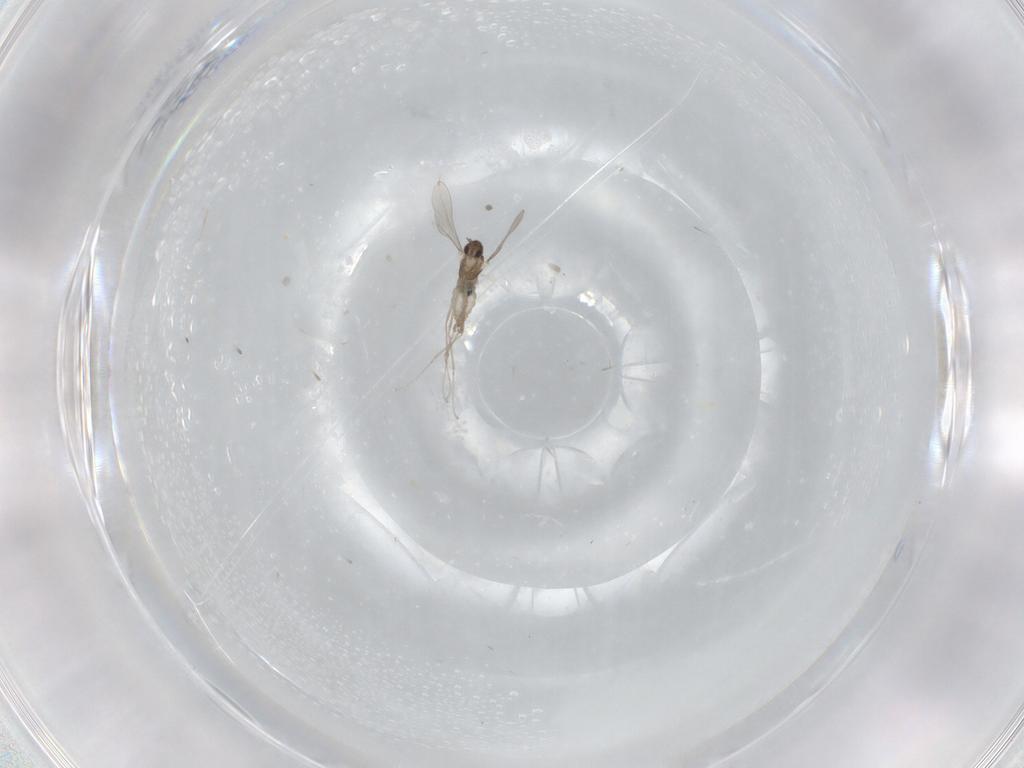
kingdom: Animalia
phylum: Arthropoda
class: Insecta
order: Diptera
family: Cecidomyiidae
